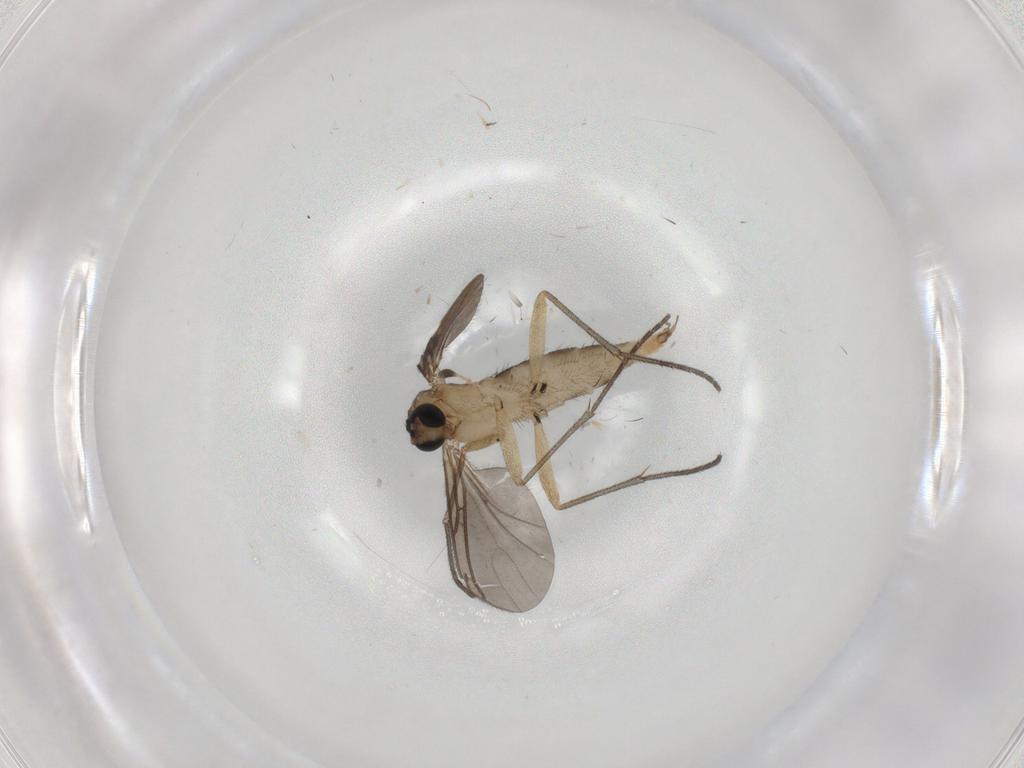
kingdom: Animalia
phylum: Arthropoda
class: Insecta
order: Diptera
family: Sciaridae
